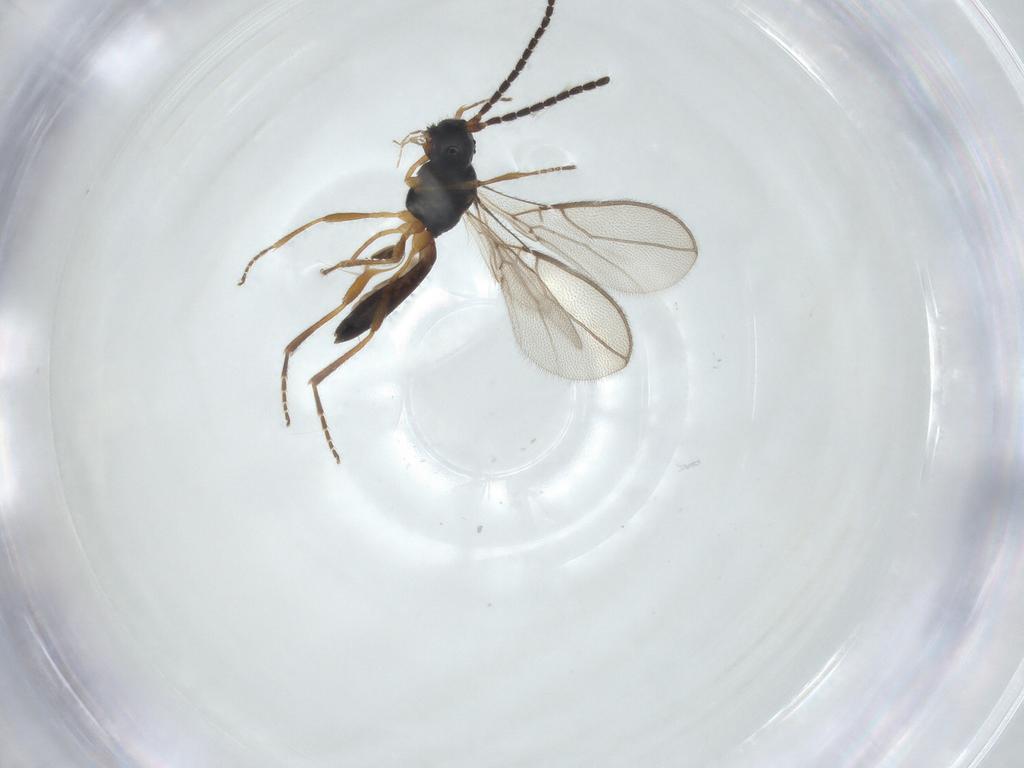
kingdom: Animalia
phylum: Arthropoda
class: Insecta
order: Hymenoptera
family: Braconidae
